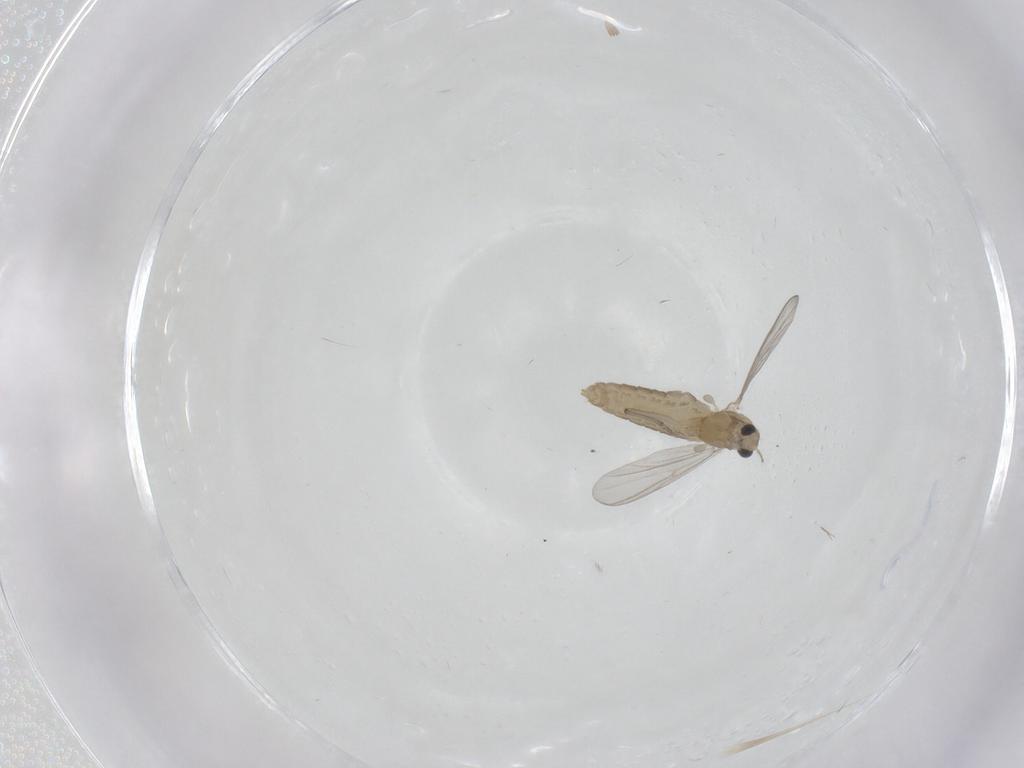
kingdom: Animalia
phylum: Arthropoda
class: Insecta
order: Diptera
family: Chironomidae
